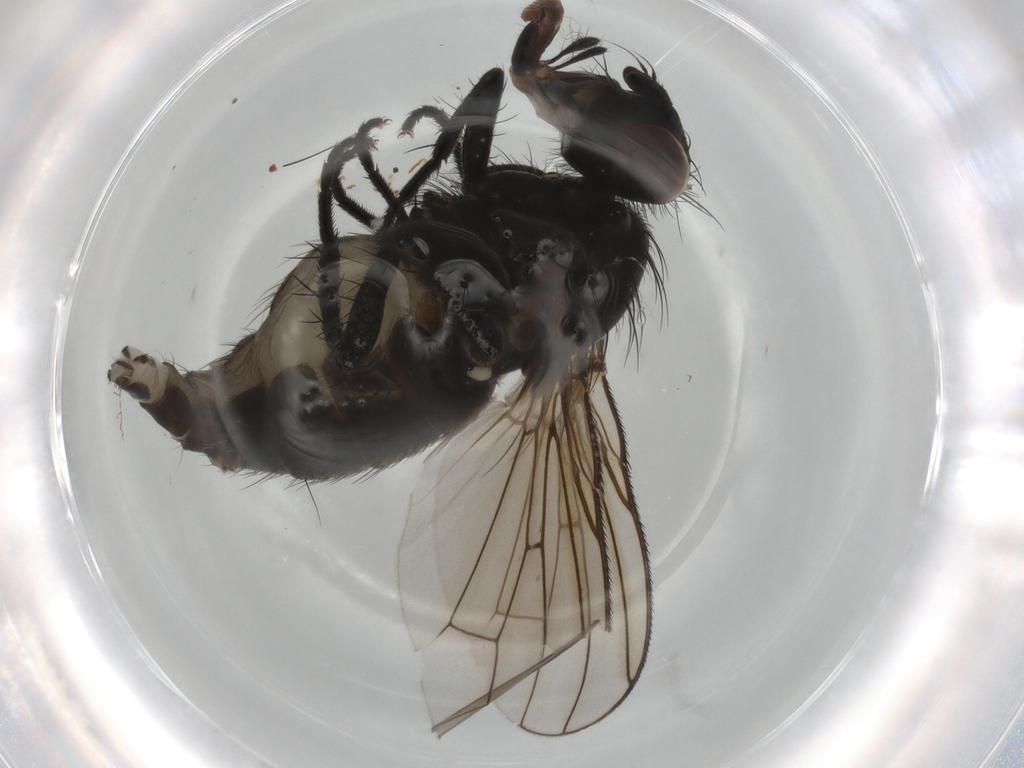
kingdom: Animalia
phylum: Arthropoda
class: Insecta
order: Diptera
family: Chironomidae
